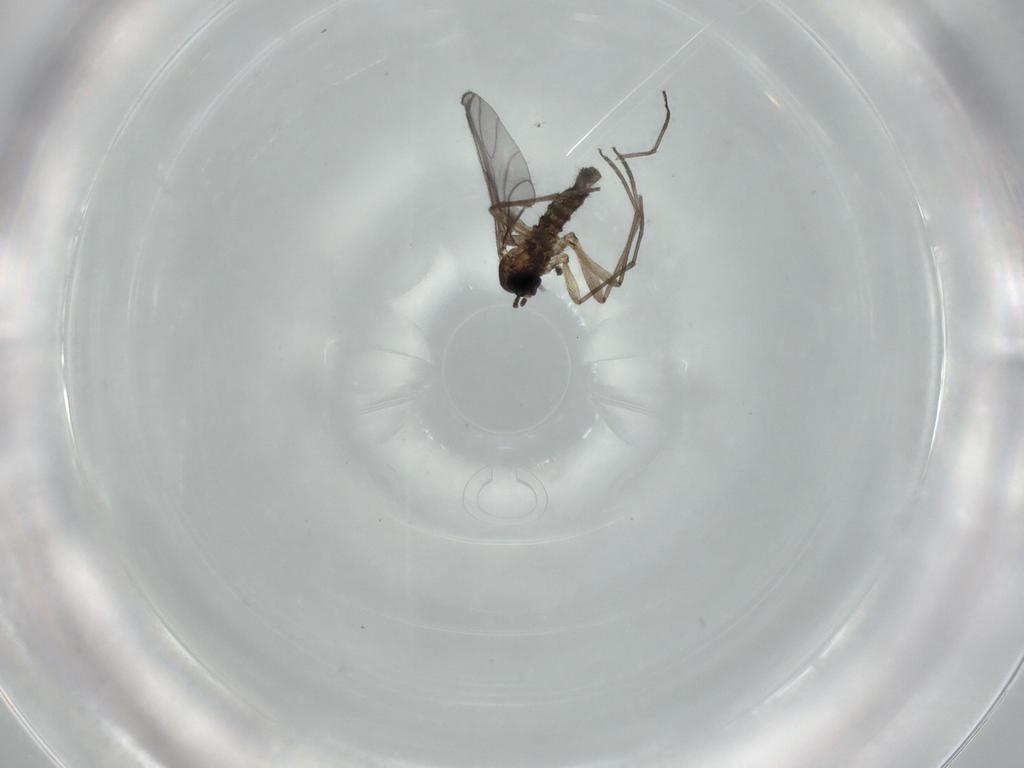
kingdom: Animalia
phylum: Arthropoda
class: Insecta
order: Diptera
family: Sciaridae
